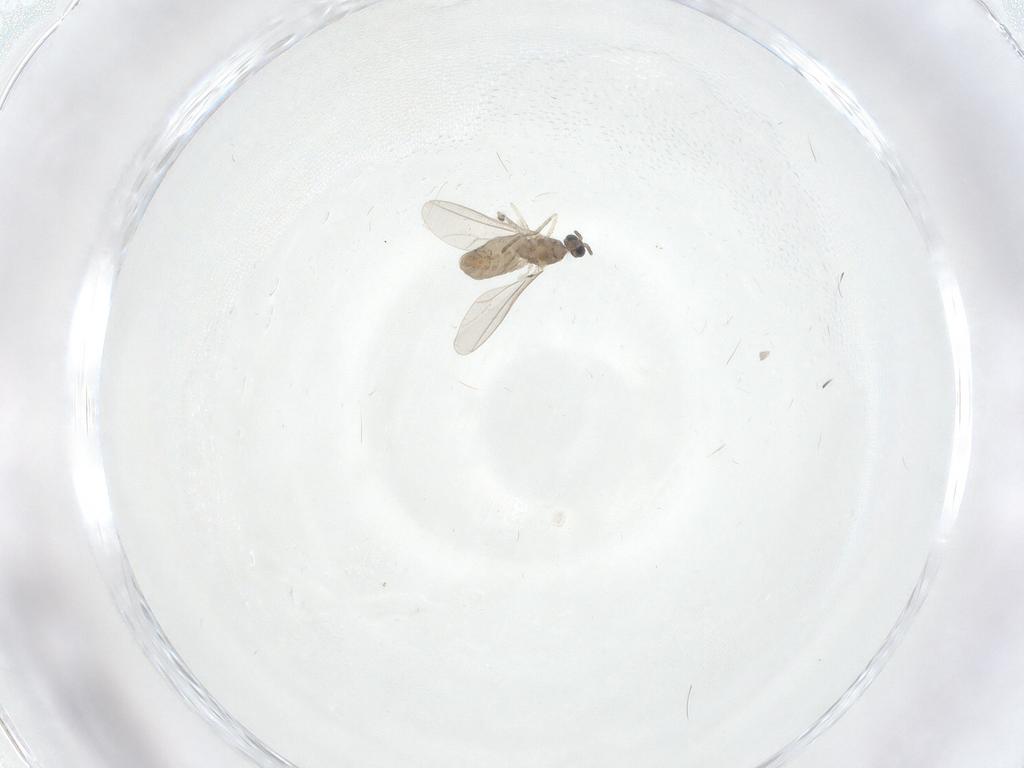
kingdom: Animalia
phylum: Arthropoda
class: Insecta
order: Diptera
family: Cecidomyiidae
